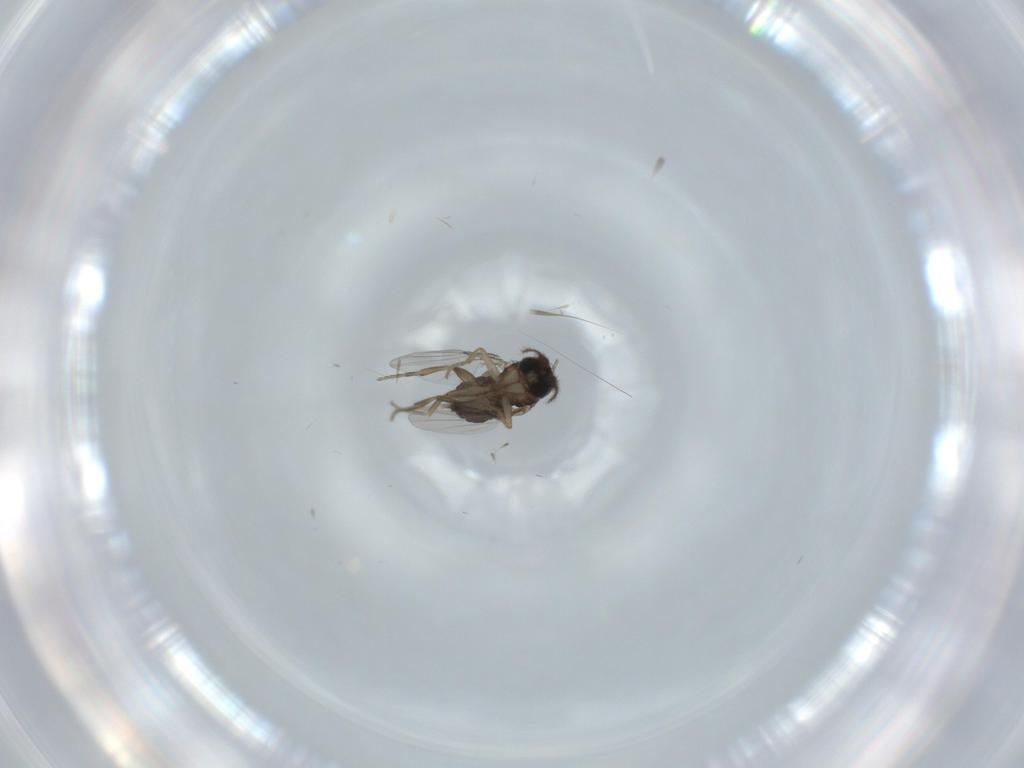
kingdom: Animalia
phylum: Arthropoda
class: Insecta
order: Diptera
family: Phoridae
